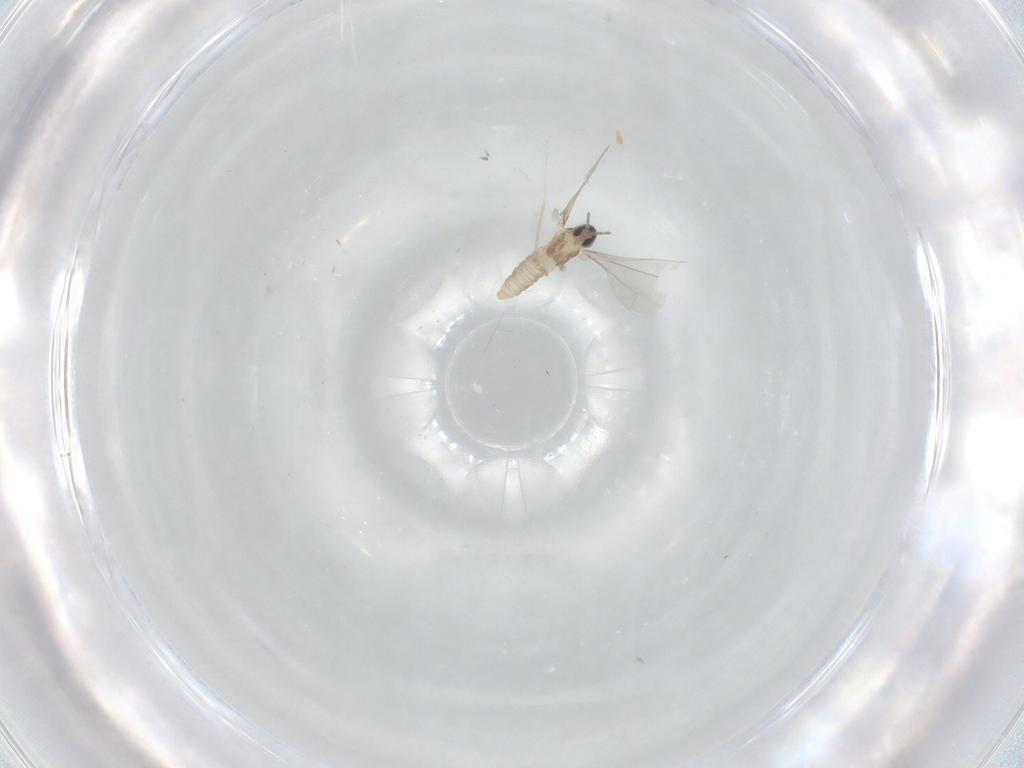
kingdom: Animalia
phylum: Arthropoda
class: Insecta
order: Diptera
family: Cecidomyiidae
